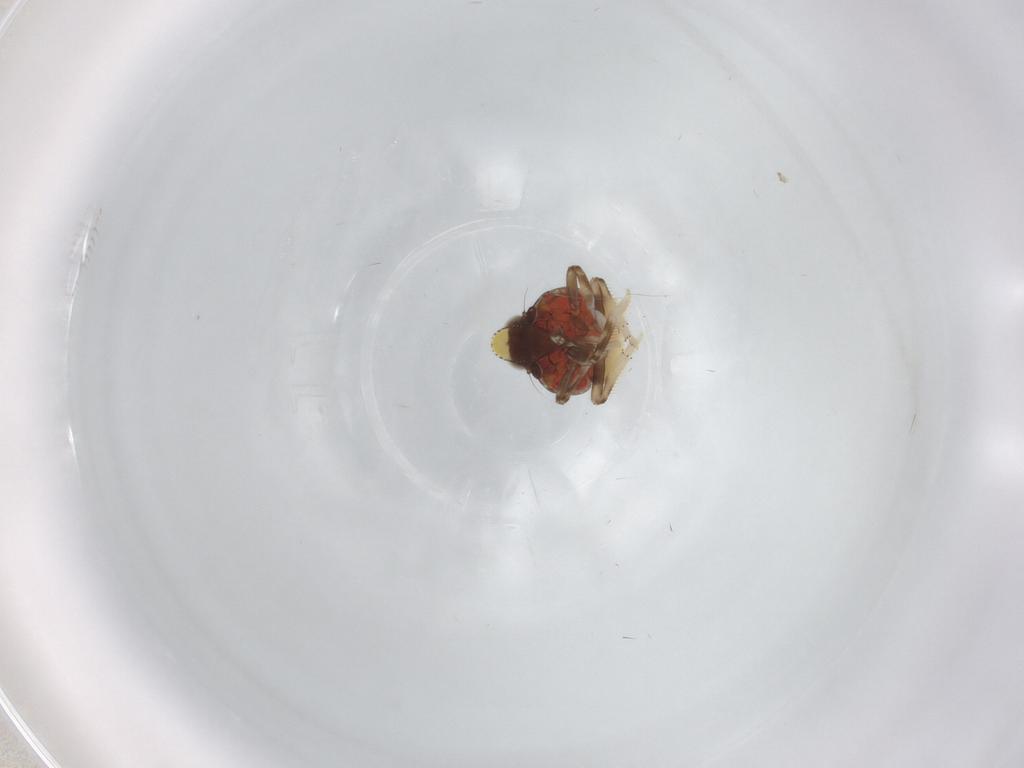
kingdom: Animalia
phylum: Arthropoda
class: Insecta
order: Hemiptera
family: Issidae
